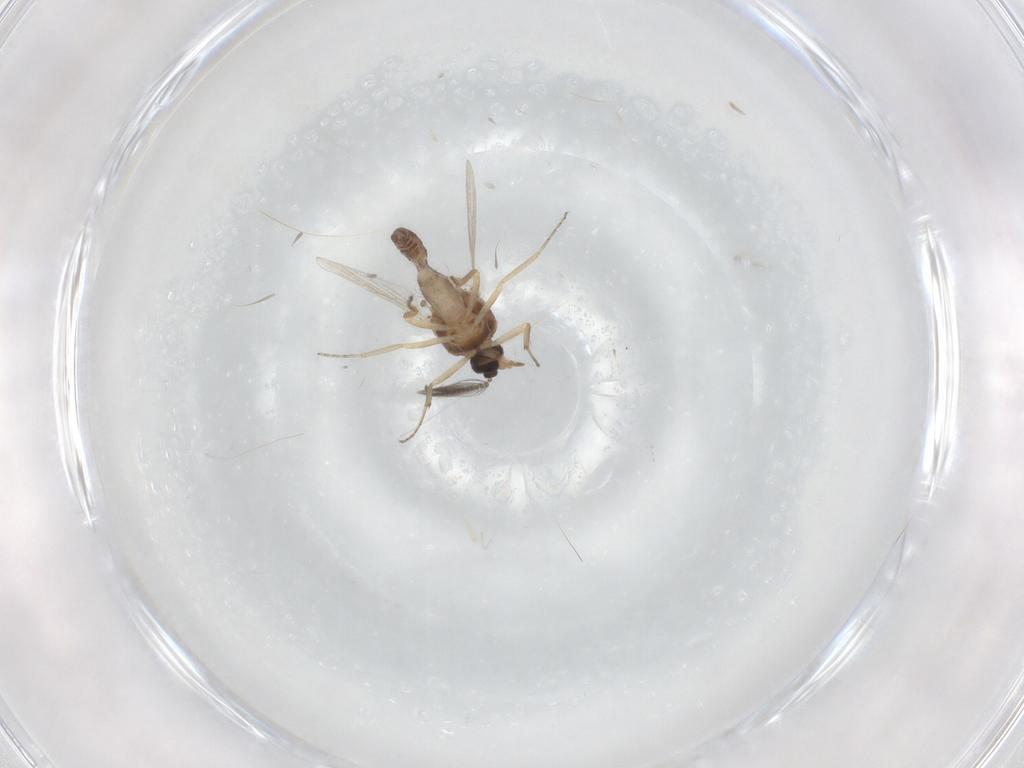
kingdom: Animalia
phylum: Arthropoda
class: Insecta
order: Diptera
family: Ceratopogonidae
